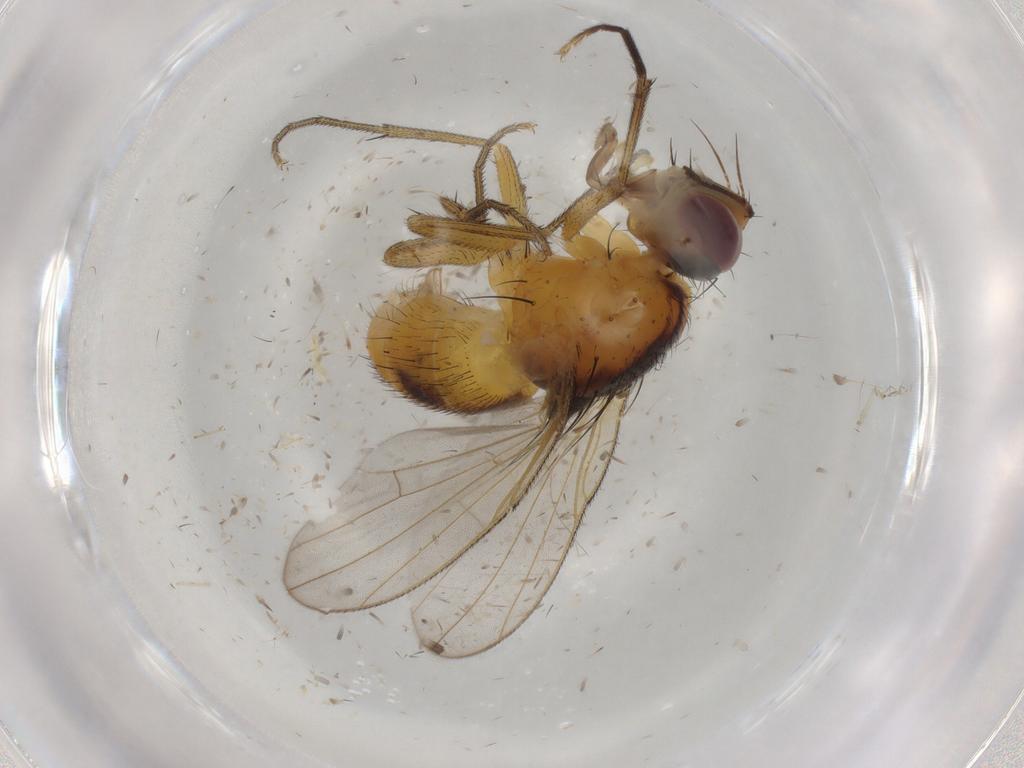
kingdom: Animalia
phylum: Arthropoda
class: Insecta
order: Diptera
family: Muscidae
